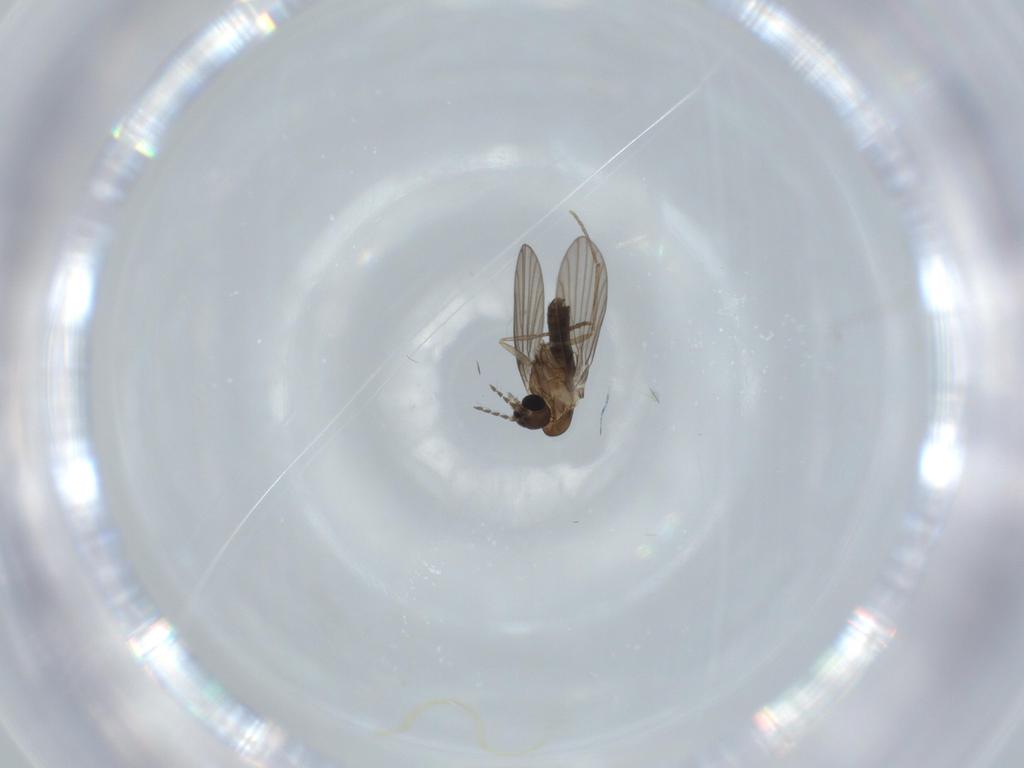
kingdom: Animalia
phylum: Arthropoda
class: Insecta
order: Diptera
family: Psychodidae
